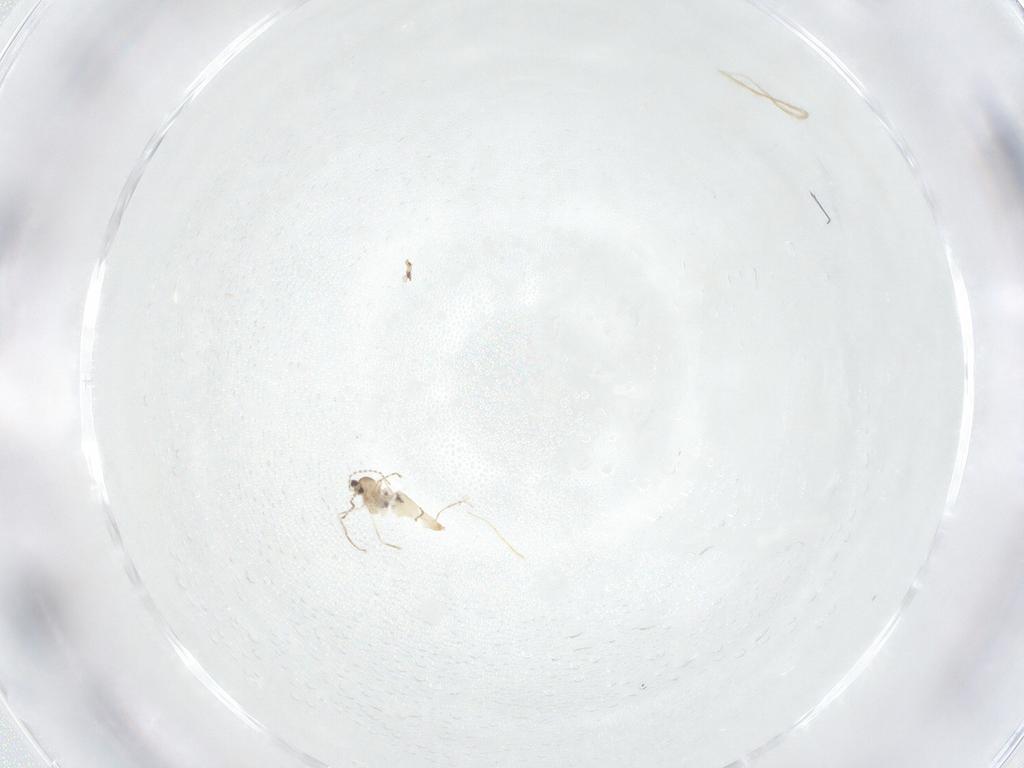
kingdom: Animalia
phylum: Arthropoda
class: Insecta
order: Diptera
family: Cecidomyiidae
